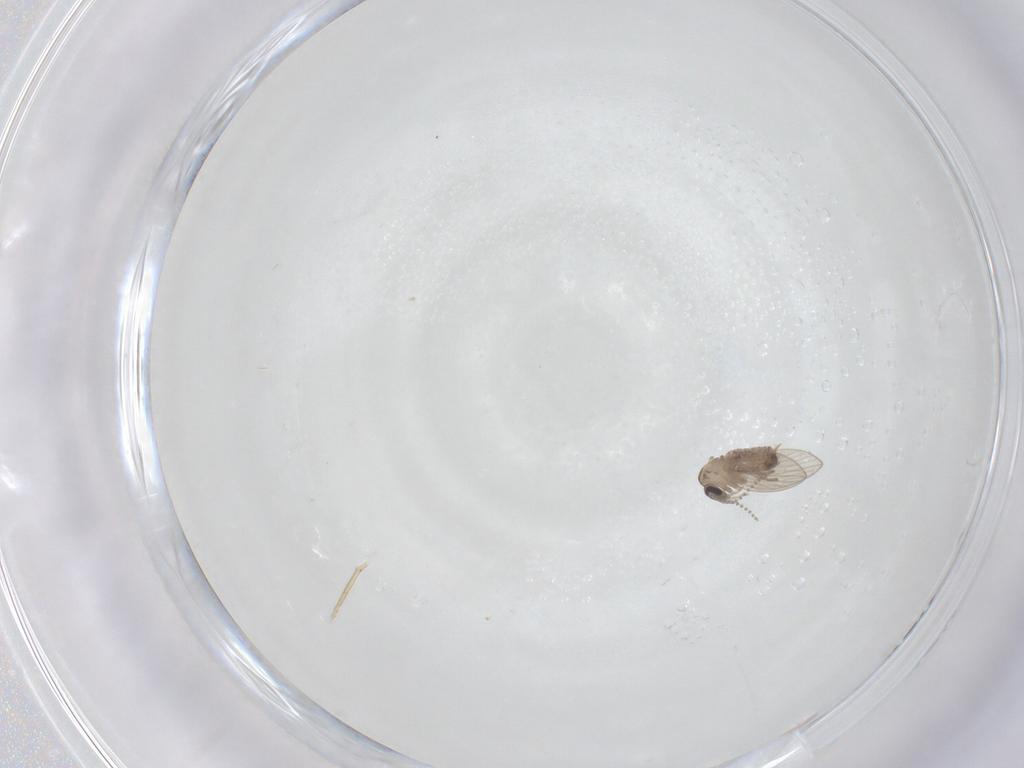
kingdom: Animalia
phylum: Arthropoda
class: Insecta
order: Diptera
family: Psychodidae
